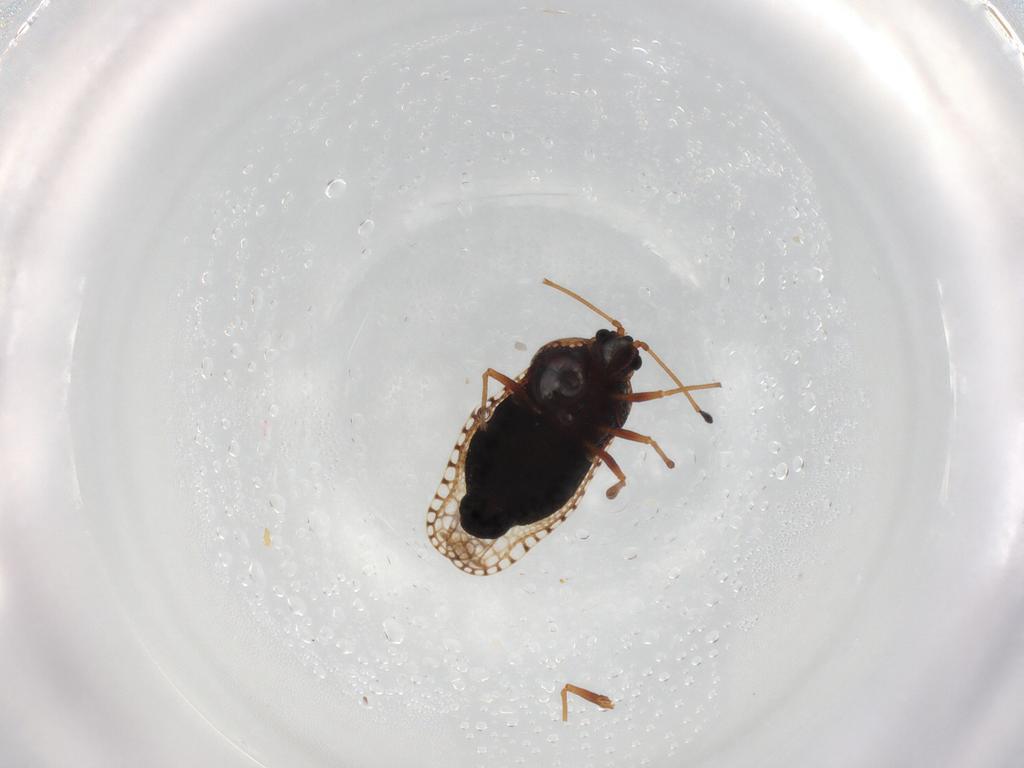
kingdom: Animalia
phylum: Arthropoda
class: Insecta
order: Hemiptera
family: Tingidae
